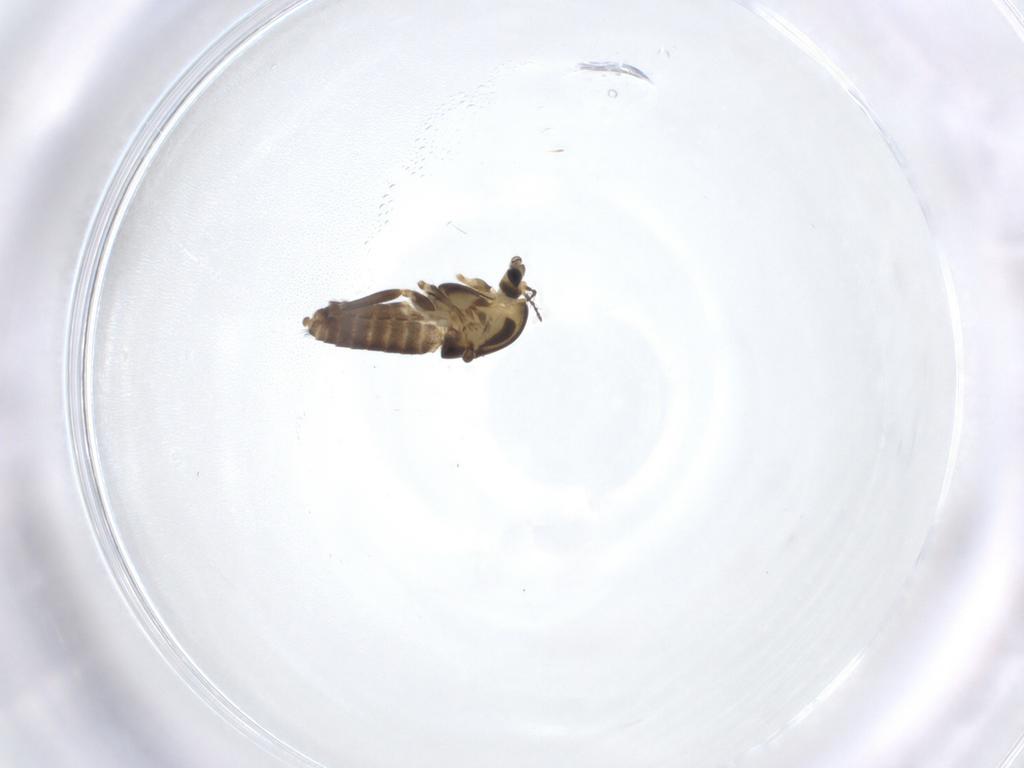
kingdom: Animalia
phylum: Arthropoda
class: Insecta
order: Diptera
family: Chironomidae
